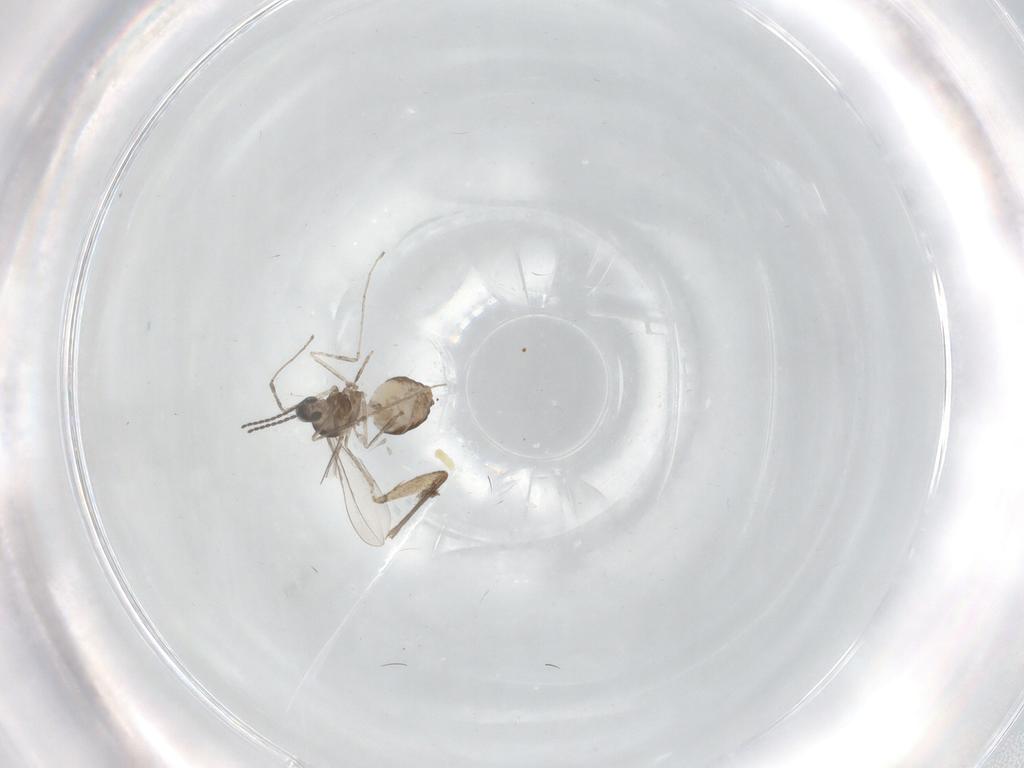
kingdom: Animalia
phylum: Arthropoda
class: Insecta
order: Diptera
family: Cecidomyiidae
